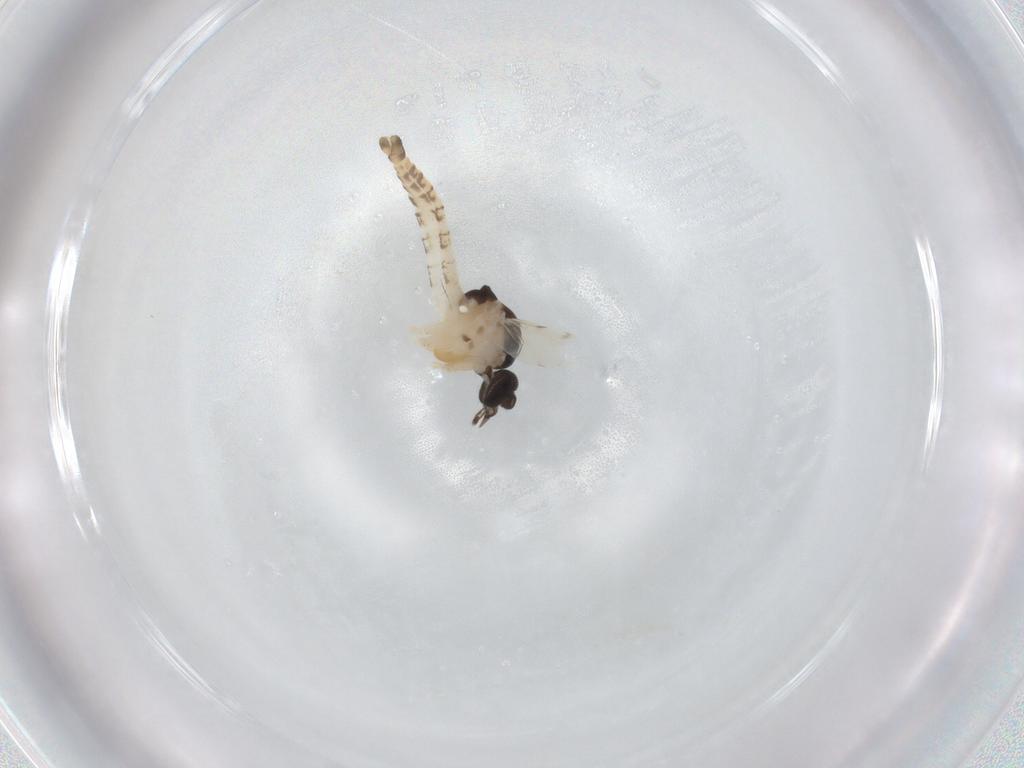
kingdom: Animalia
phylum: Arthropoda
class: Insecta
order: Diptera
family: Ceratopogonidae
